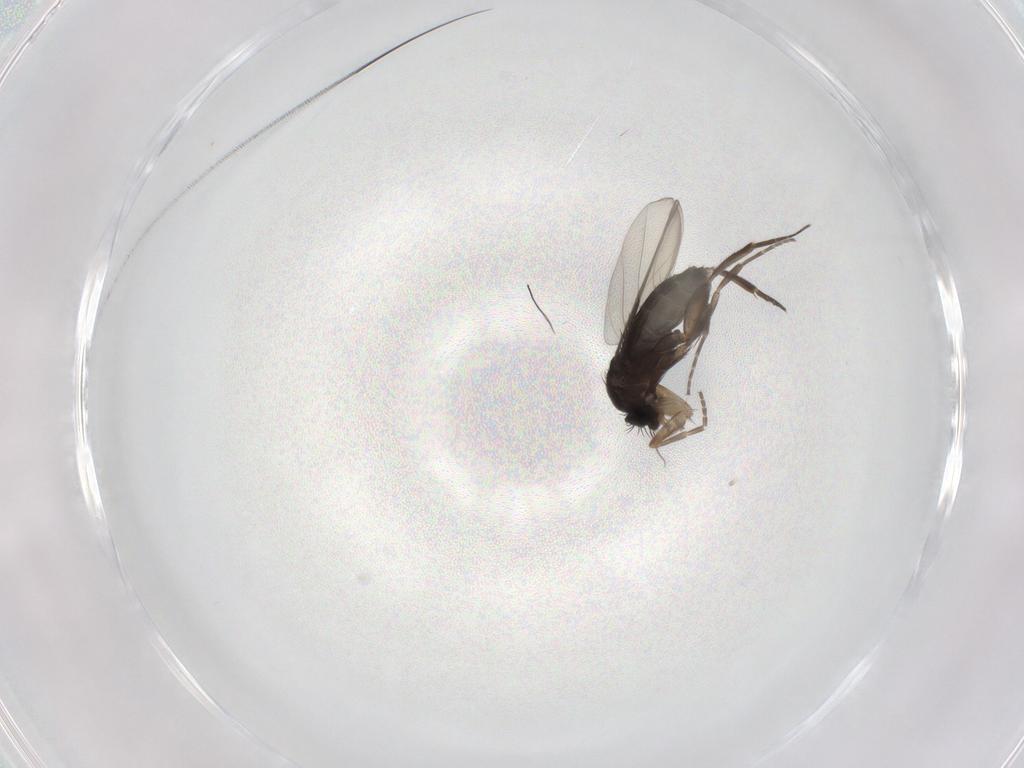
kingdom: Animalia
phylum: Arthropoda
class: Insecta
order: Diptera
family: Phoridae
